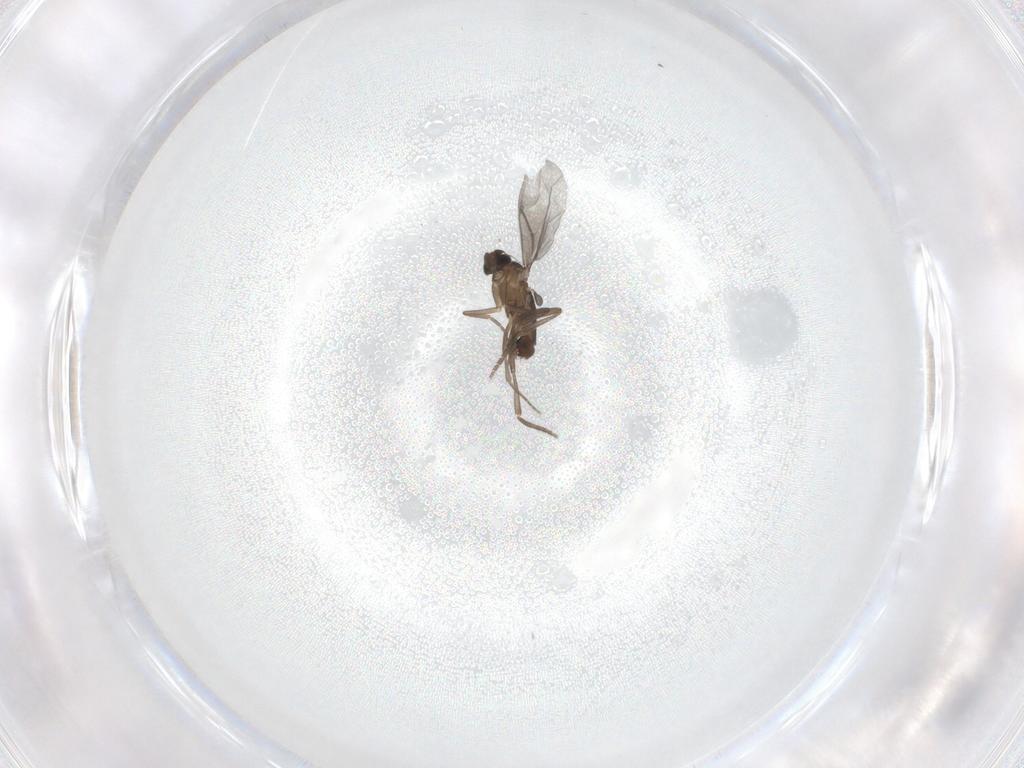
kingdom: Animalia
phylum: Arthropoda
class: Insecta
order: Diptera
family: Phoridae
